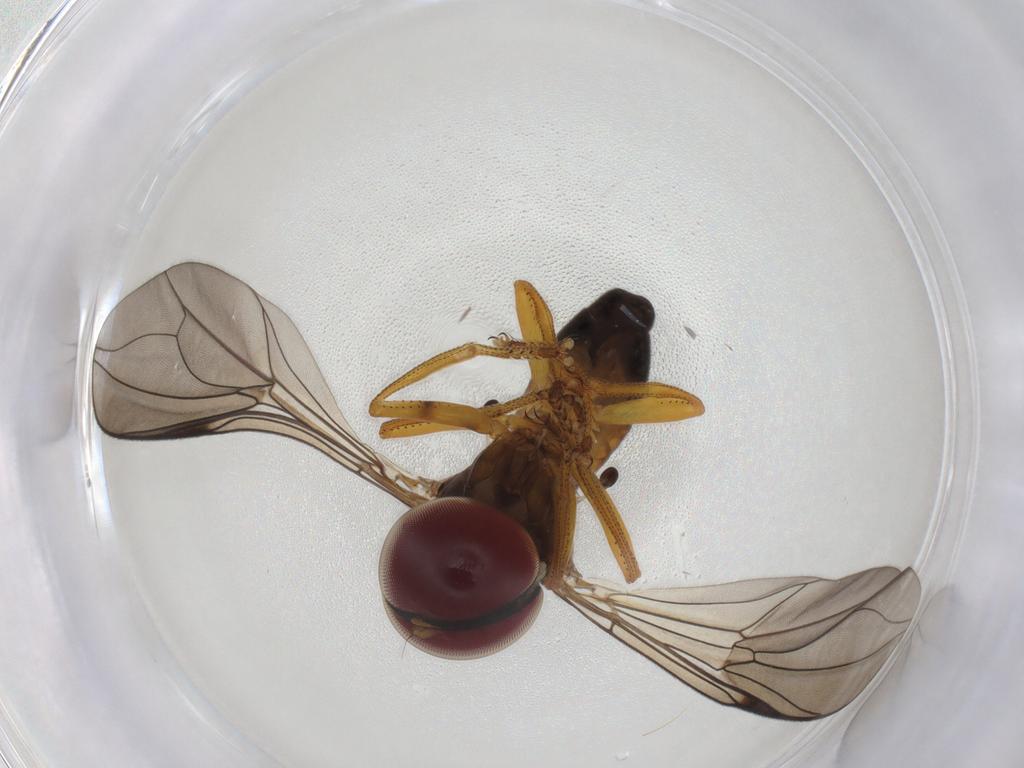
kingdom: Animalia
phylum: Arthropoda
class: Insecta
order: Diptera
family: Pipunculidae
